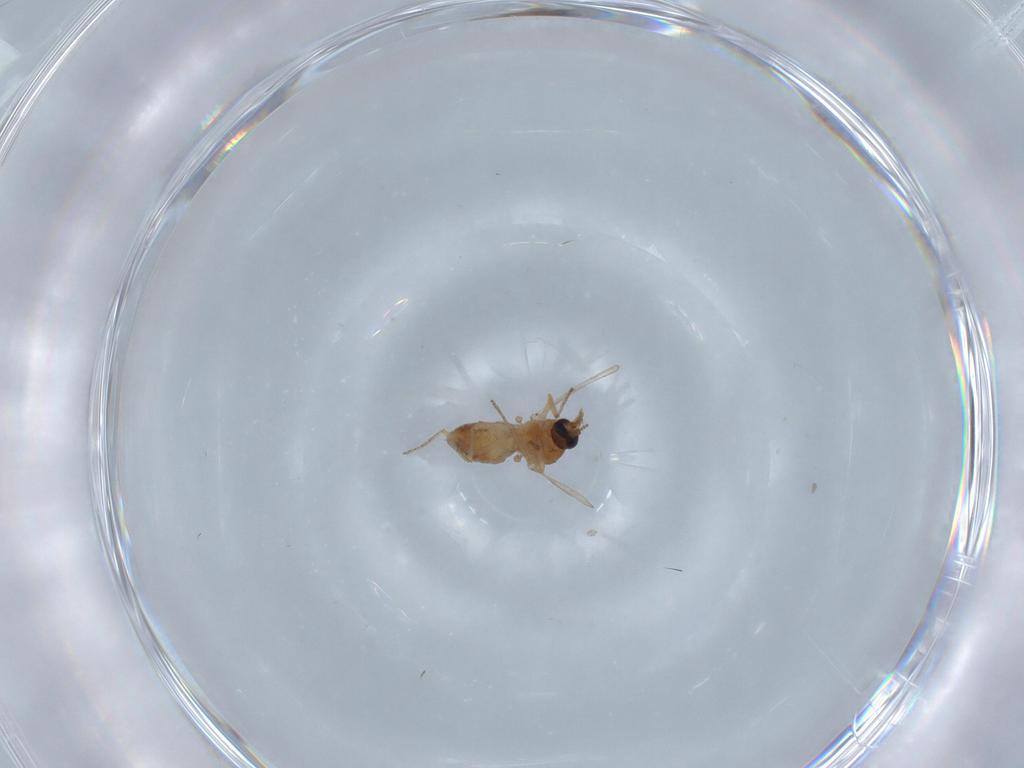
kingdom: Animalia
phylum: Arthropoda
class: Insecta
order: Diptera
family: Ceratopogonidae
